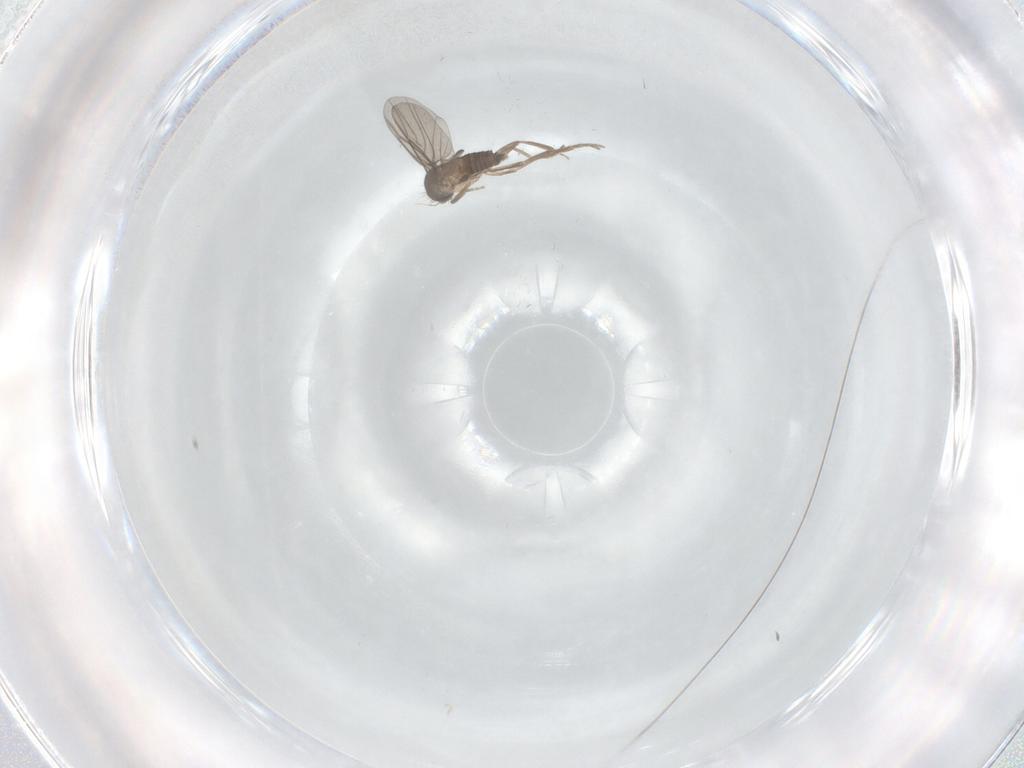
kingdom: Animalia
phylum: Arthropoda
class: Insecta
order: Diptera
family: Phoridae
